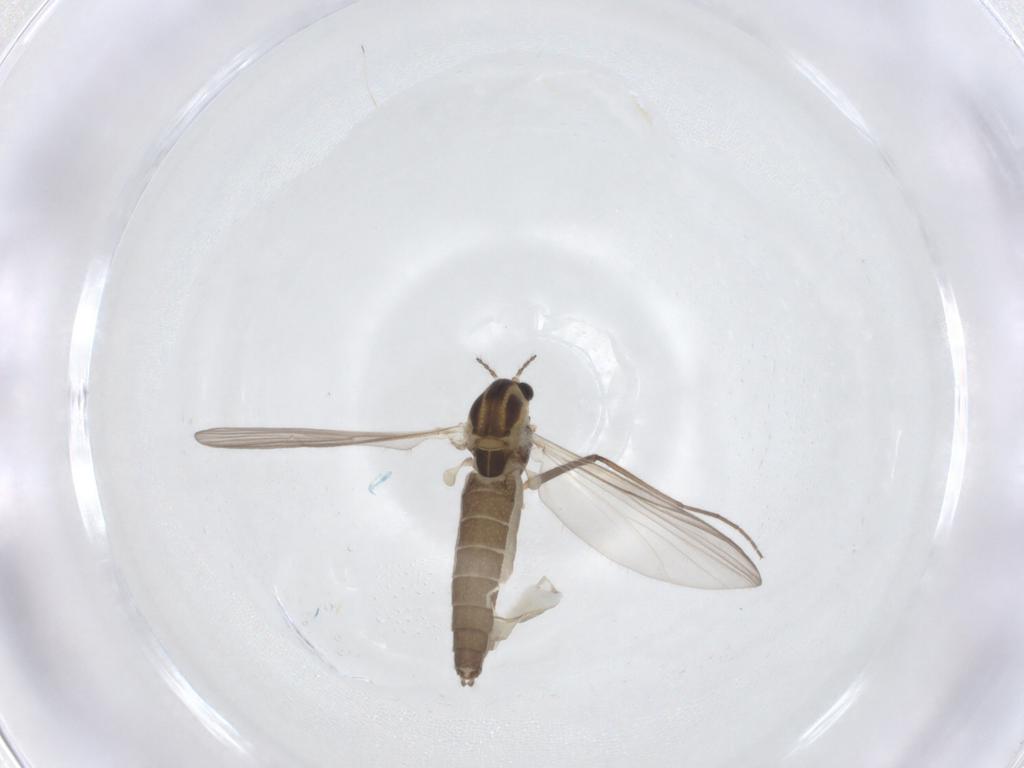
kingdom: Animalia
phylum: Arthropoda
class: Insecta
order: Diptera
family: Chironomidae
